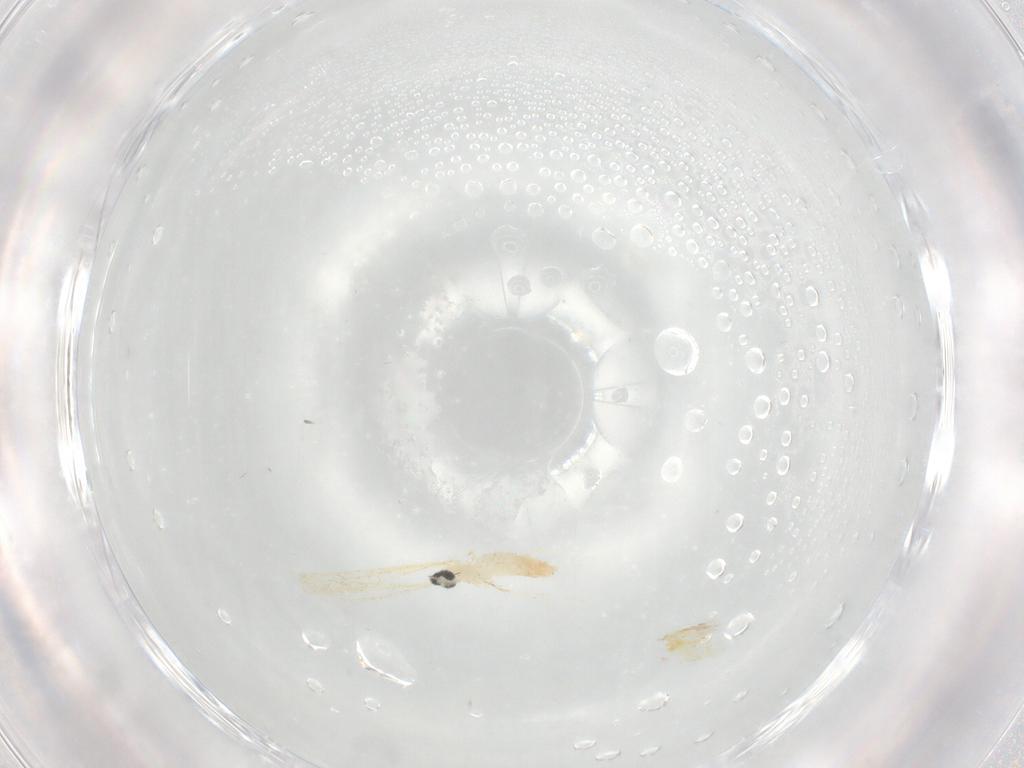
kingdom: Animalia
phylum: Arthropoda
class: Insecta
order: Diptera
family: Cecidomyiidae
